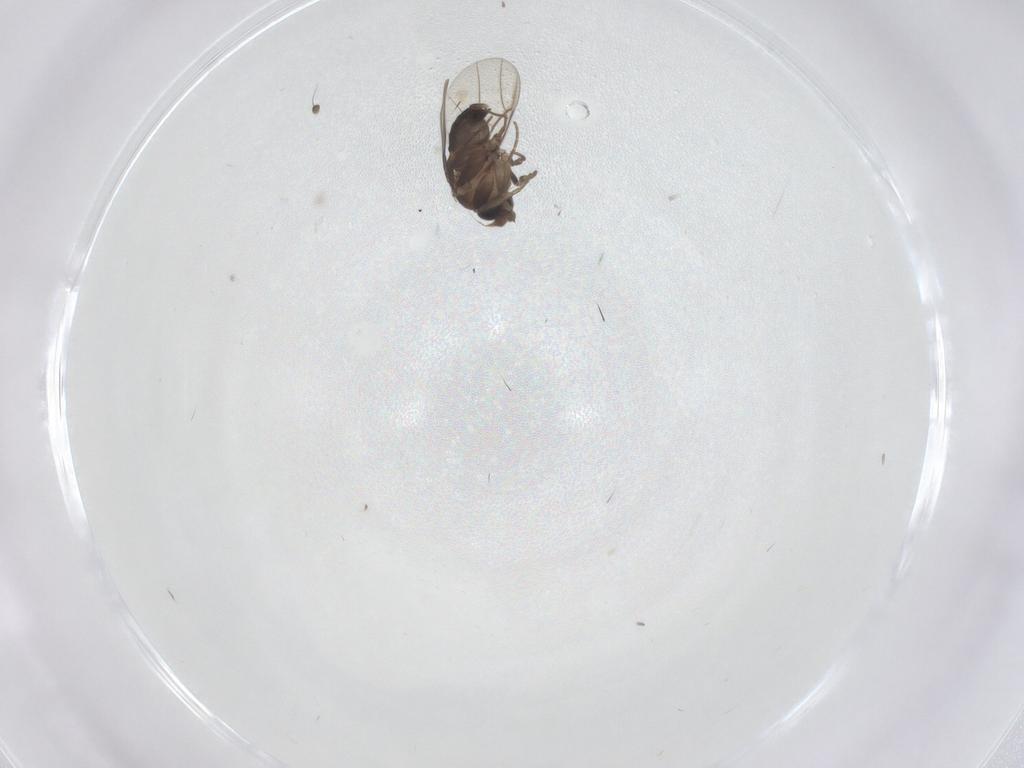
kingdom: Animalia
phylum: Arthropoda
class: Insecta
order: Diptera
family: Phoridae
